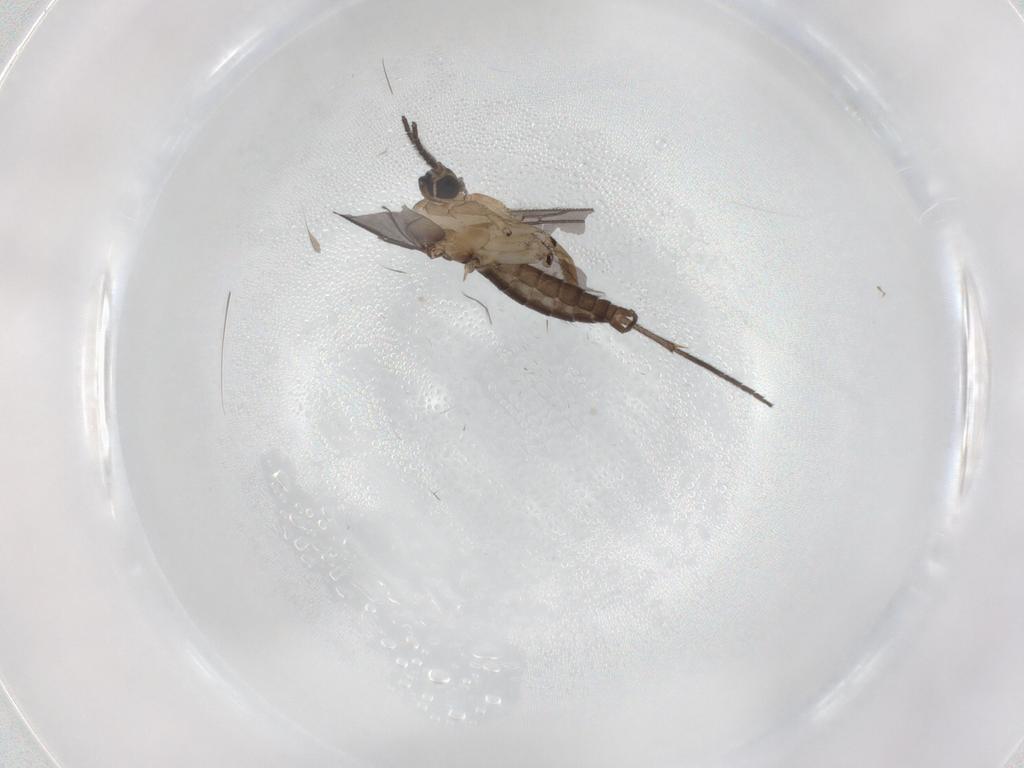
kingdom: Animalia
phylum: Arthropoda
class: Insecta
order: Diptera
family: Sciaridae
